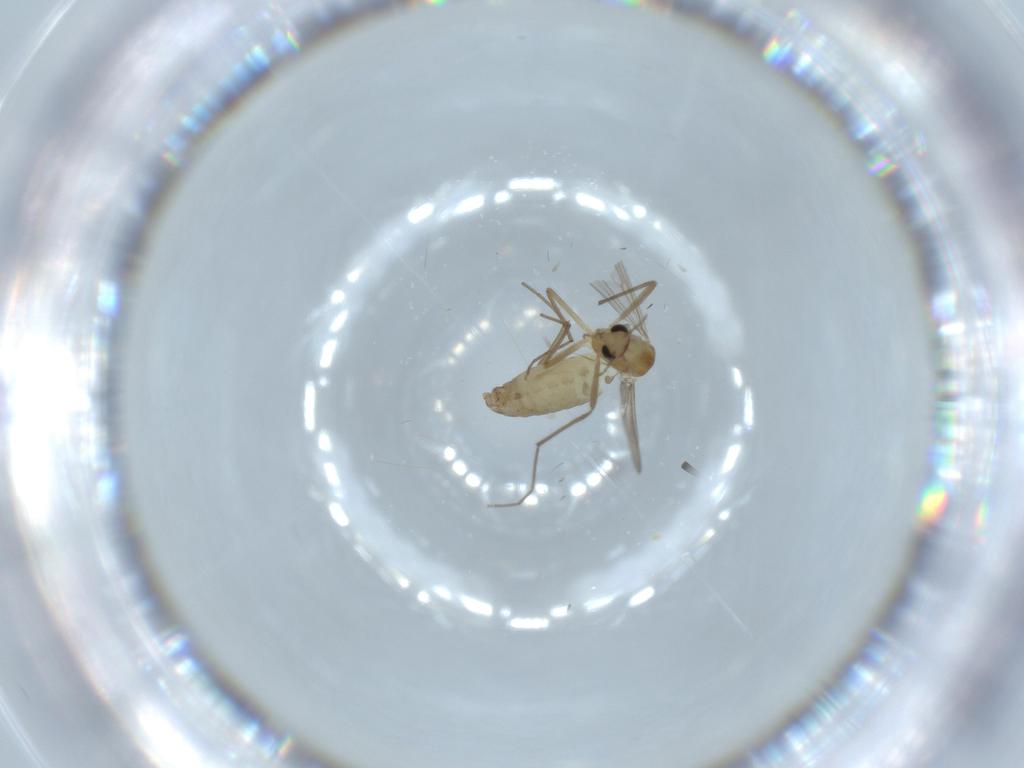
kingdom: Animalia
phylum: Arthropoda
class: Insecta
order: Diptera
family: Chironomidae
